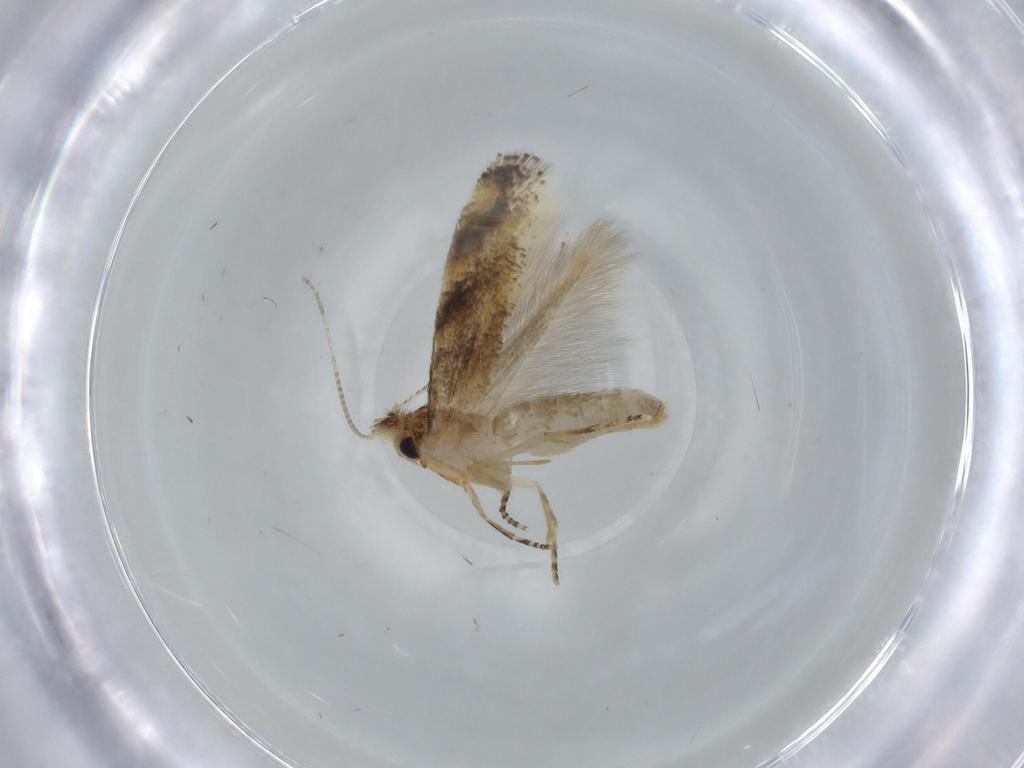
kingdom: Animalia
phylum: Arthropoda
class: Insecta
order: Lepidoptera
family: Bucculatricidae
